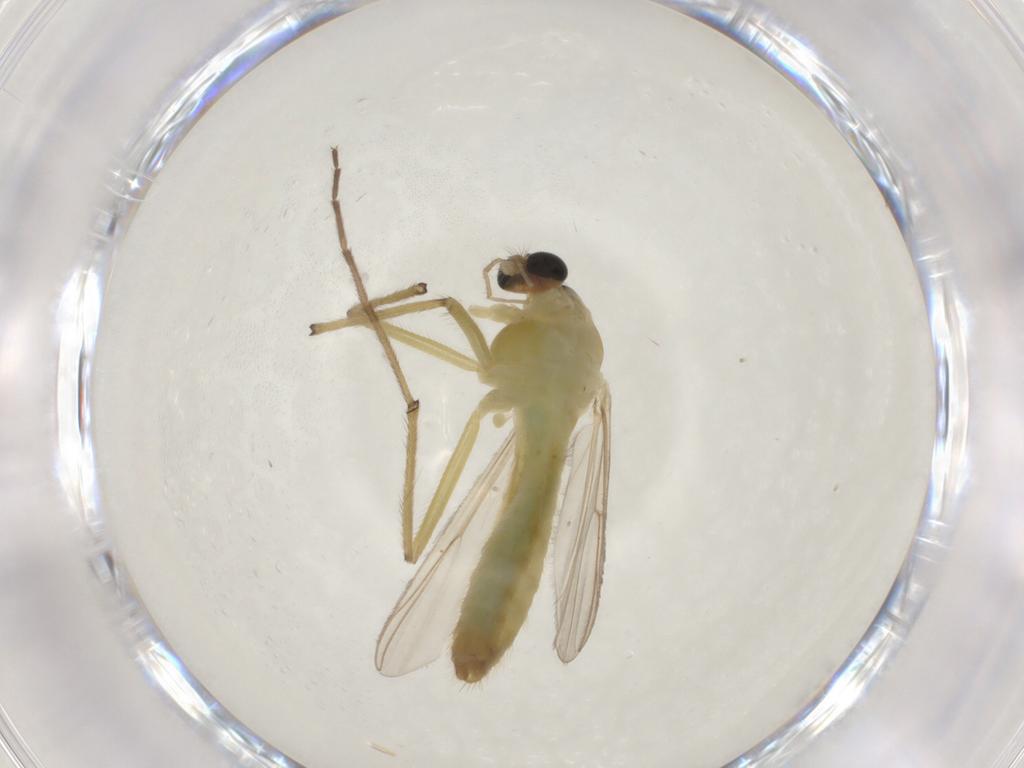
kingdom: Animalia
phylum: Arthropoda
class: Insecta
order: Diptera
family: Chironomidae
